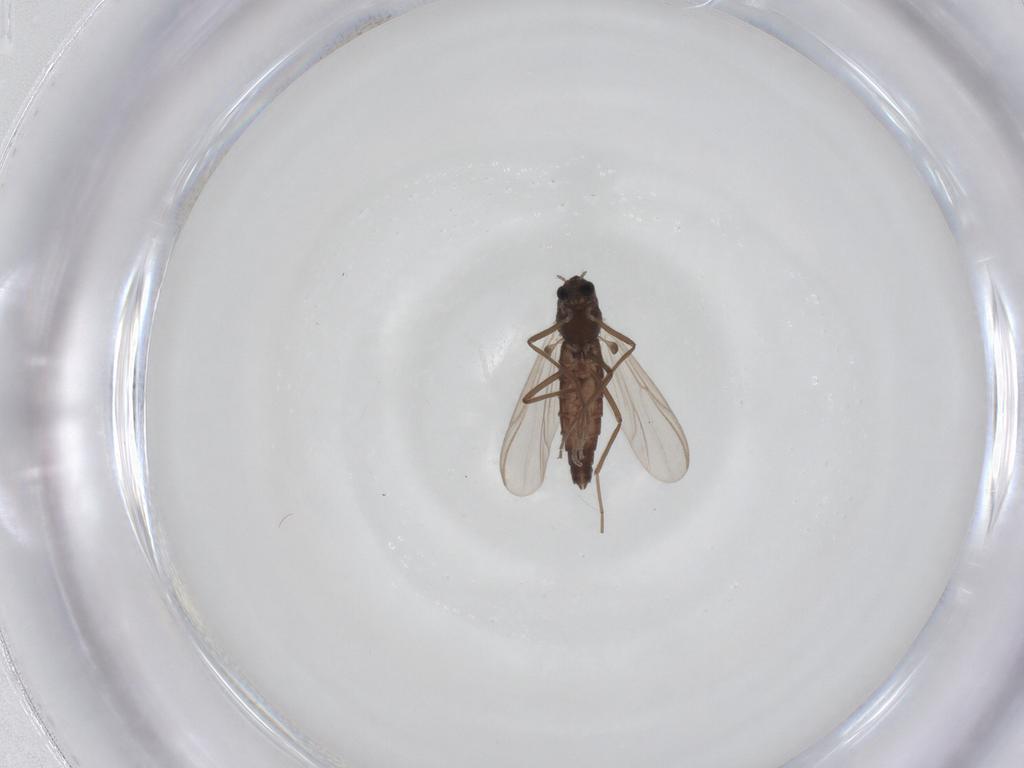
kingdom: Animalia
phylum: Arthropoda
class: Insecta
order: Diptera
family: Chironomidae
